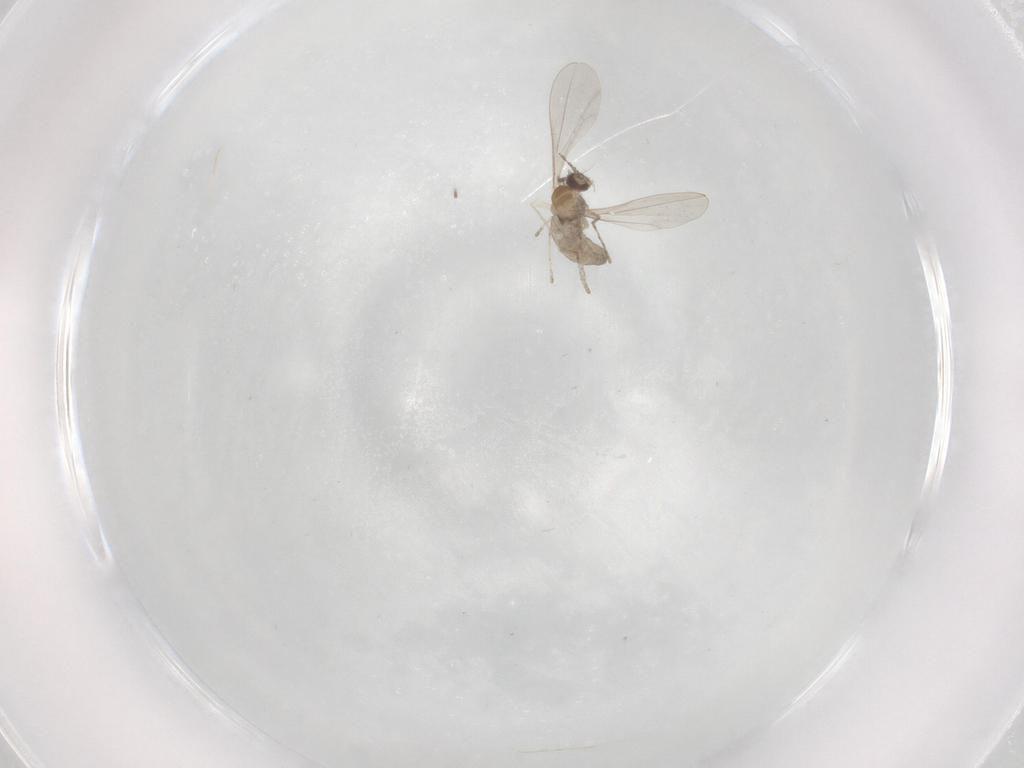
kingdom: Animalia
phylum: Arthropoda
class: Insecta
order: Diptera
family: Cecidomyiidae
